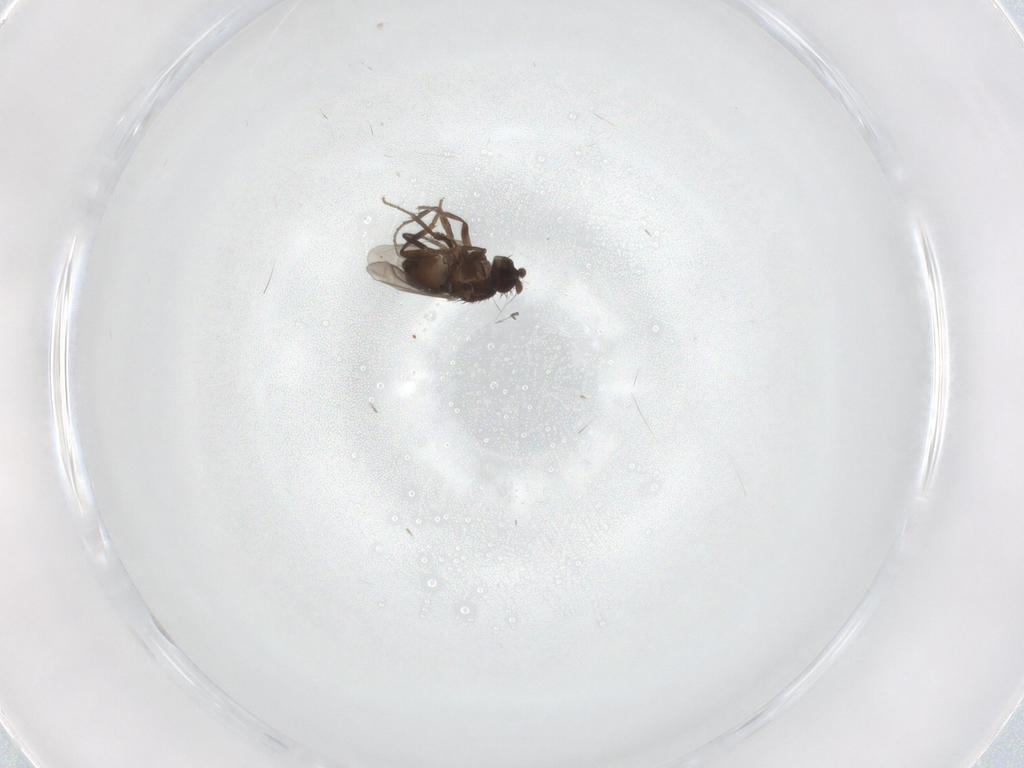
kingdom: Animalia
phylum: Arthropoda
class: Insecta
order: Diptera
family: Sphaeroceridae
